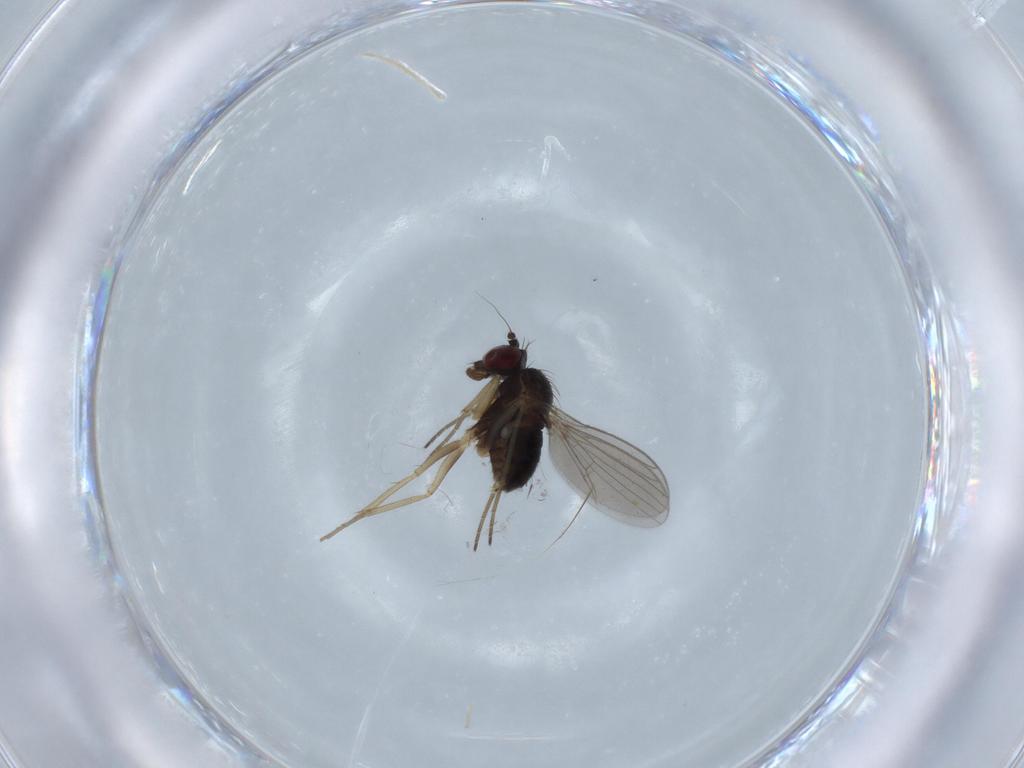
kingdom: Animalia
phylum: Arthropoda
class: Insecta
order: Diptera
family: Dolichopodidae
